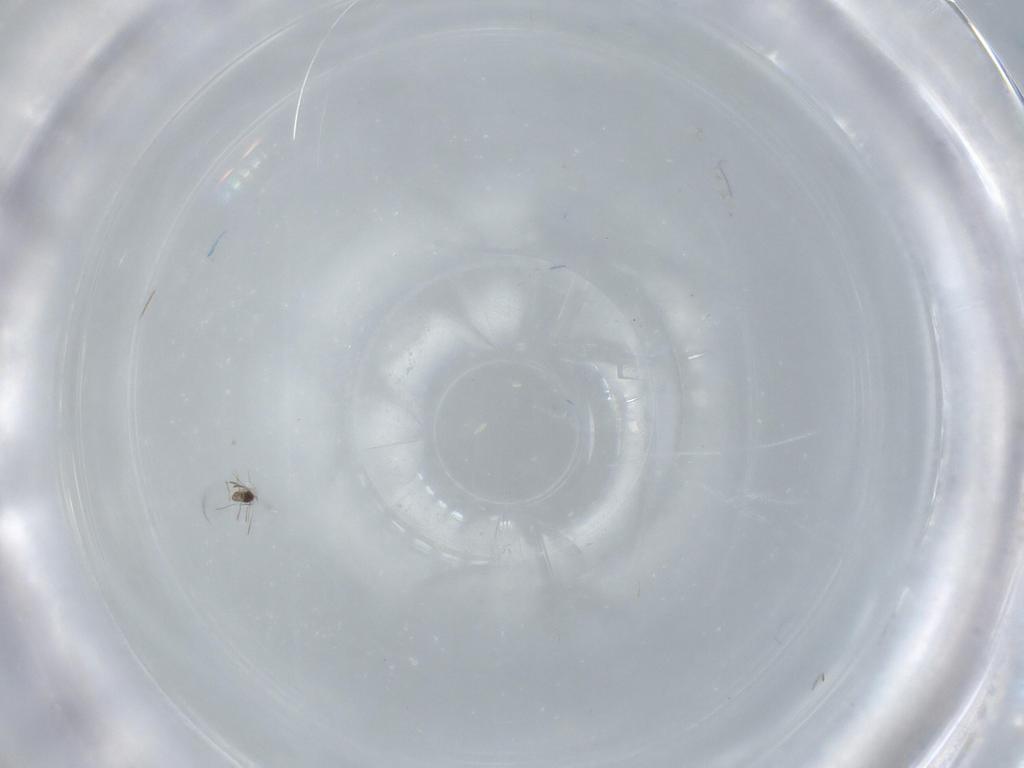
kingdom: Animalia
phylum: Arthropoda
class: Insecta
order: Hymenoptera
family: Mymaridae
